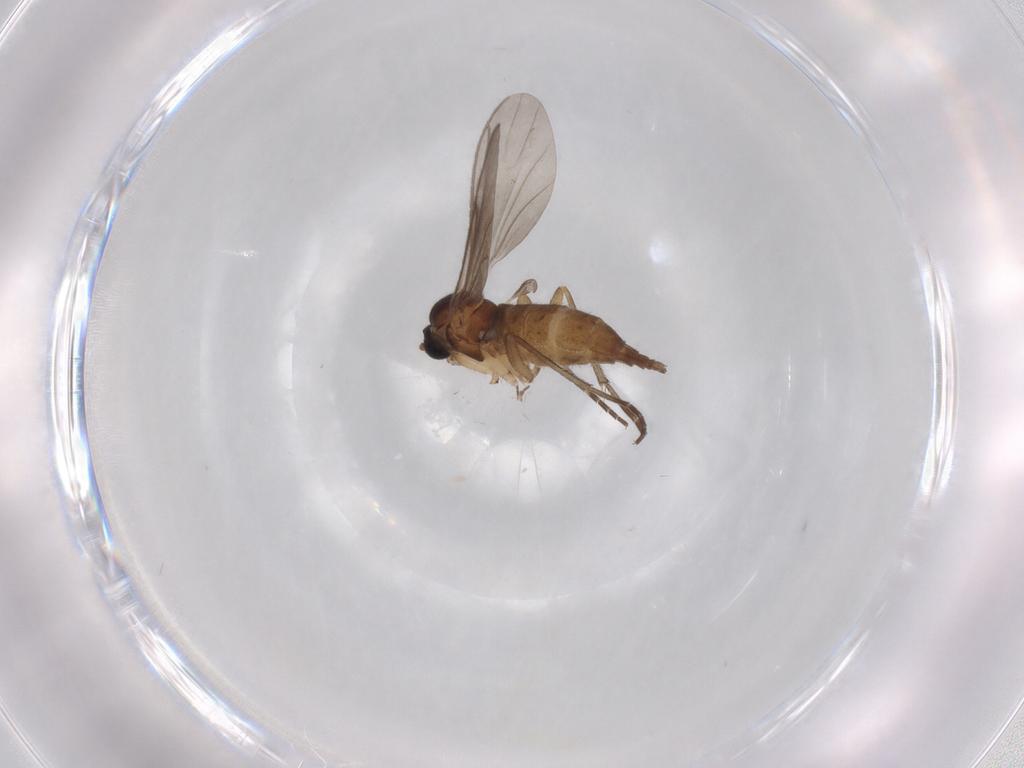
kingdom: Animalia
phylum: Arthropoda
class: Insecta
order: Diptera
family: Sciaridae
